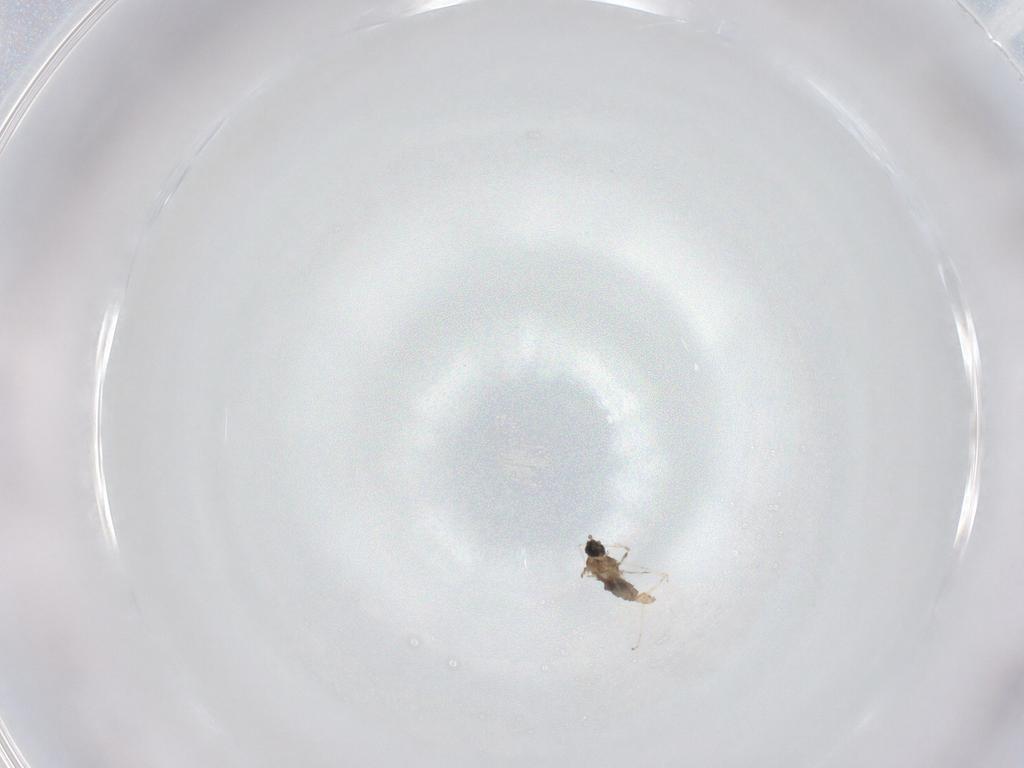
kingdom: Animalia
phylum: Arthropoda
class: Insecta
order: Diptera
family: Cecidomyiidae
